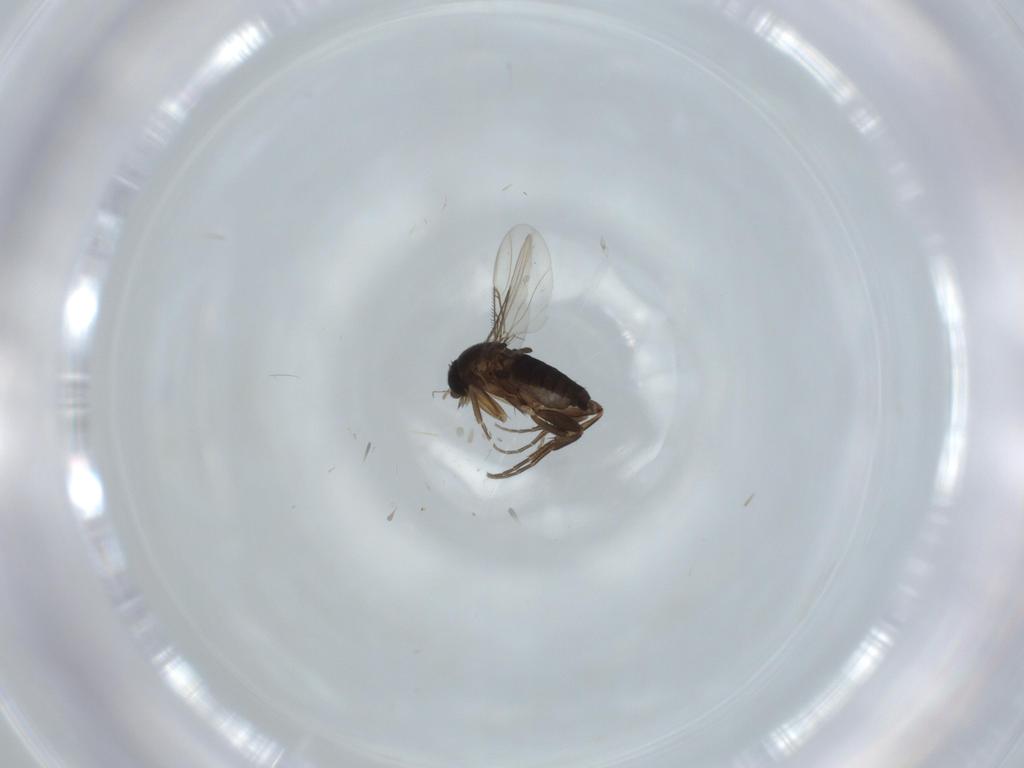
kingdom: Animalia
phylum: Arthropoda
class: Insecta
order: Diptera
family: Phoridae
